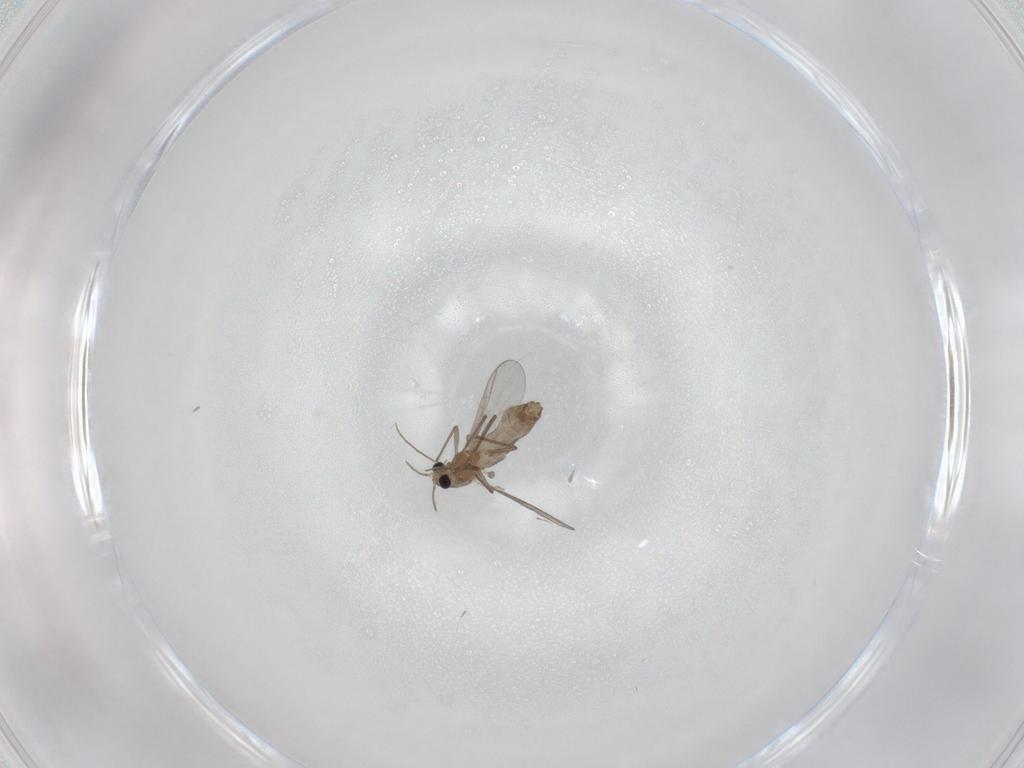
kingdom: Animalia
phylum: Arthropoda
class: Insecta
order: Diptera
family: Chironomidae
